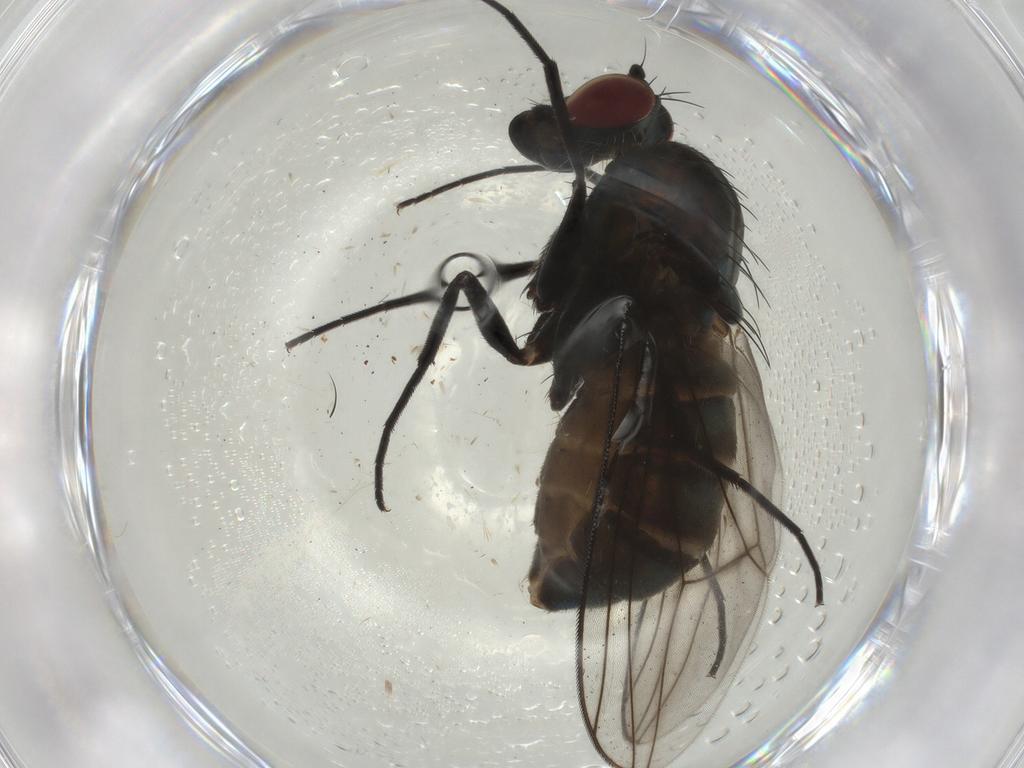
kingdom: Animalia
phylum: Arthropoda
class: Insecta
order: Diptera
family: Dolichopodidae
